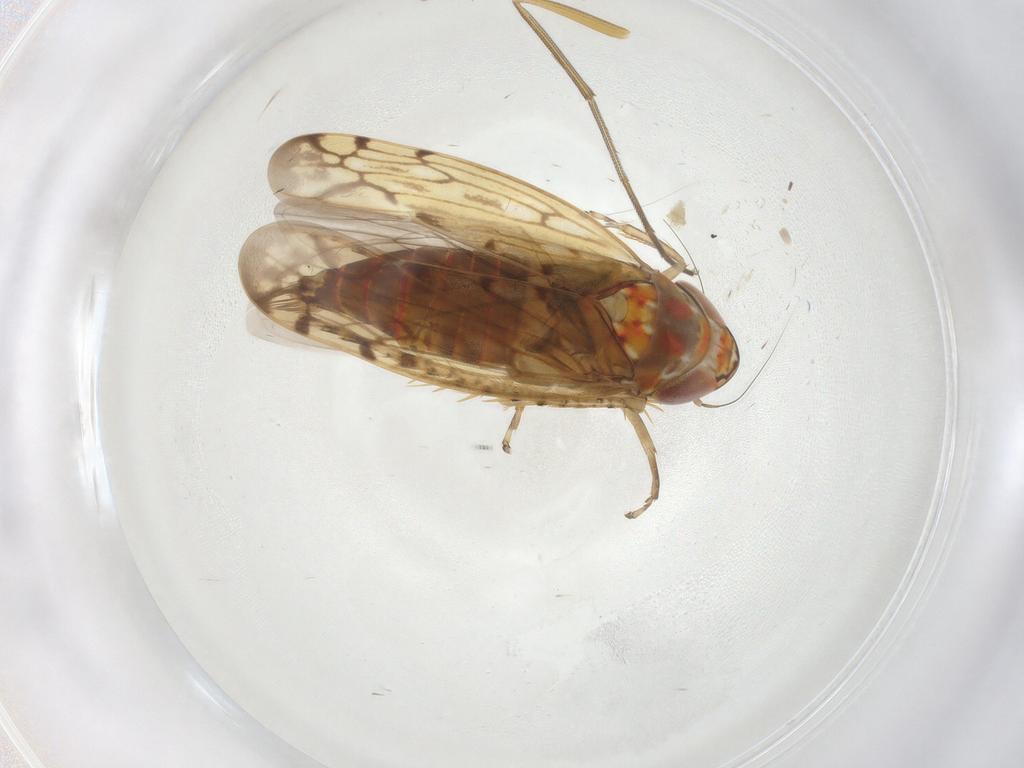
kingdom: Animalia
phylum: Arthropoda
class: Insecta
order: Hemiptera
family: Cicadellidae
